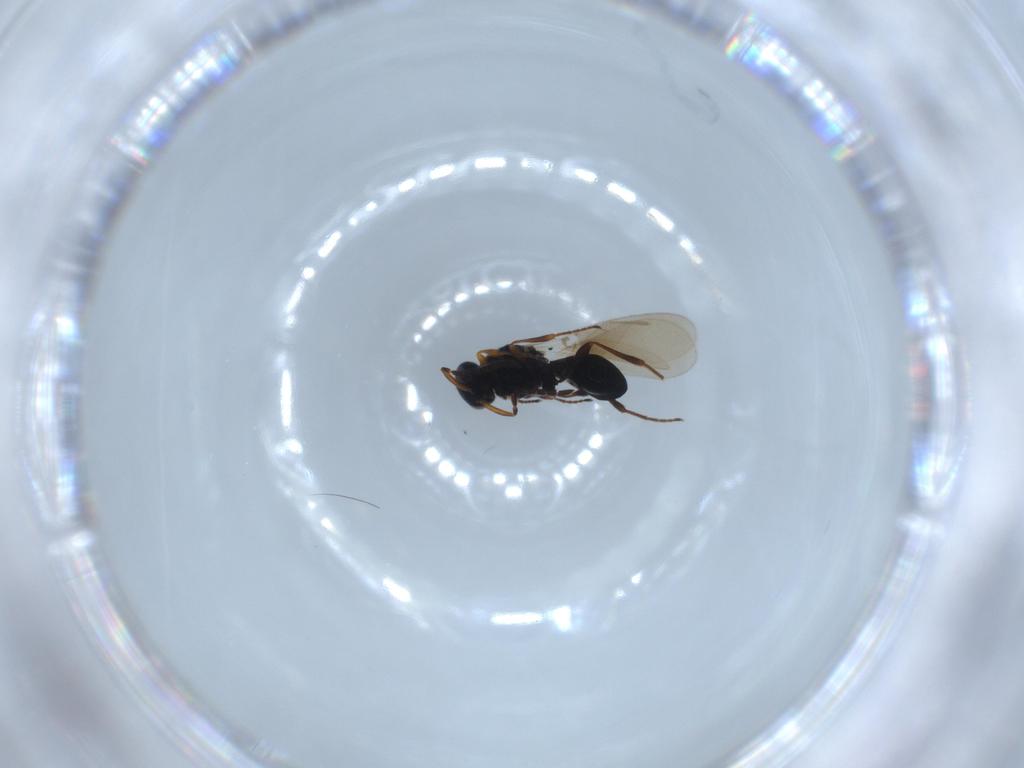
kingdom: Animalia
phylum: Arthropoda
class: Insecta
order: Hymenoptera
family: Platygastridae
